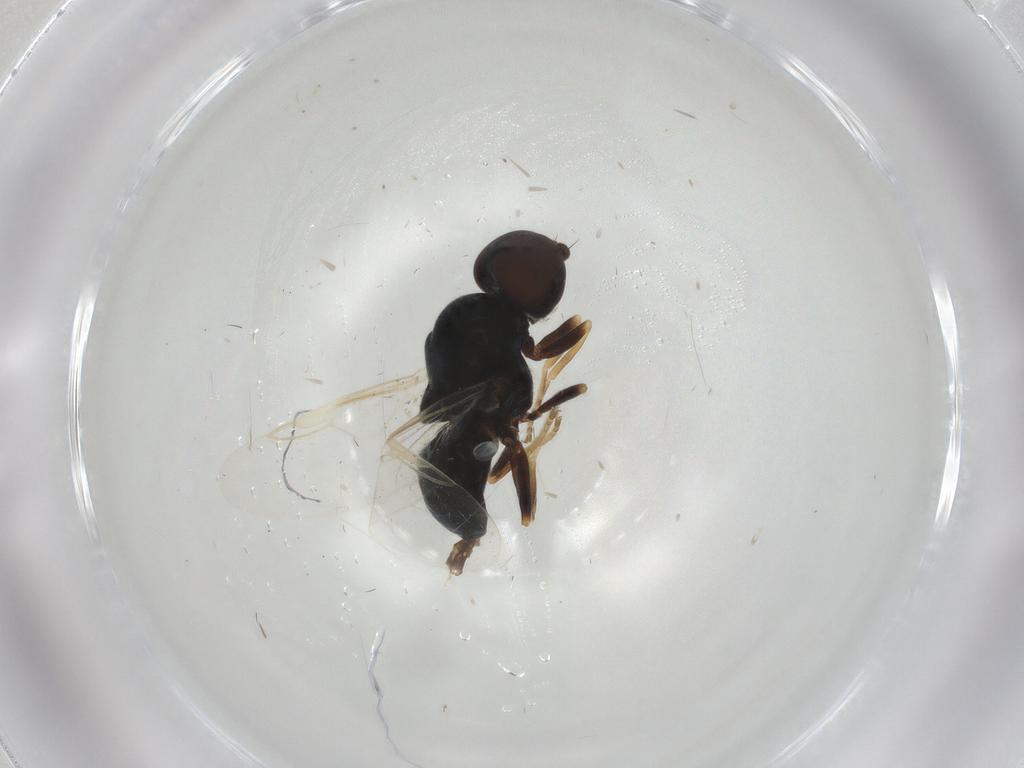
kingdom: Animalia
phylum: Arthropoda
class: Insecta
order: Diptera
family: Stratiomyidae
